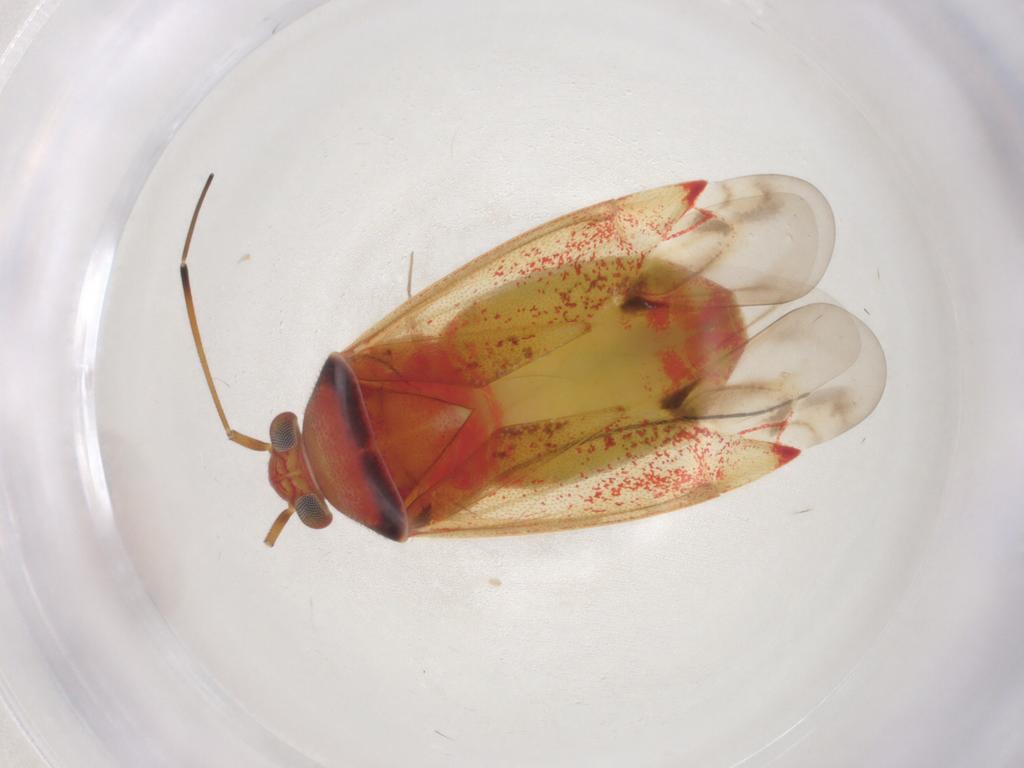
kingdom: Animalia
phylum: Arthropoda
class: Insecta
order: Hemiptera
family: Miridae
